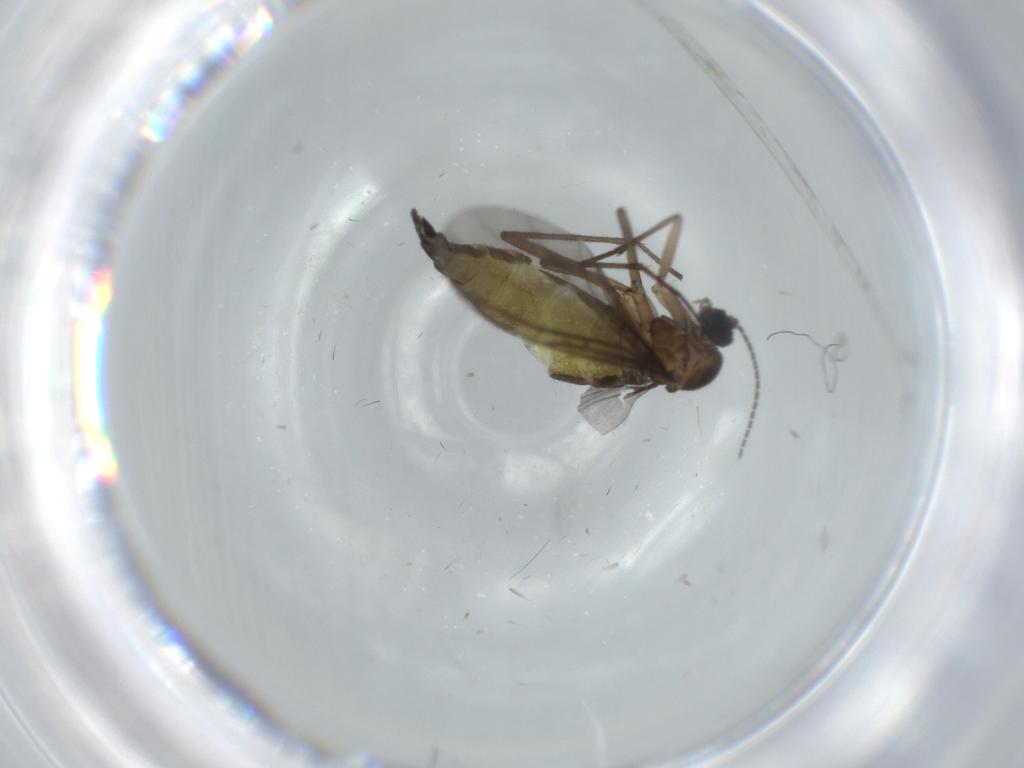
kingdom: Animalia
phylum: Arthropoda
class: Insecta
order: Diptera
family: Sciaridae
